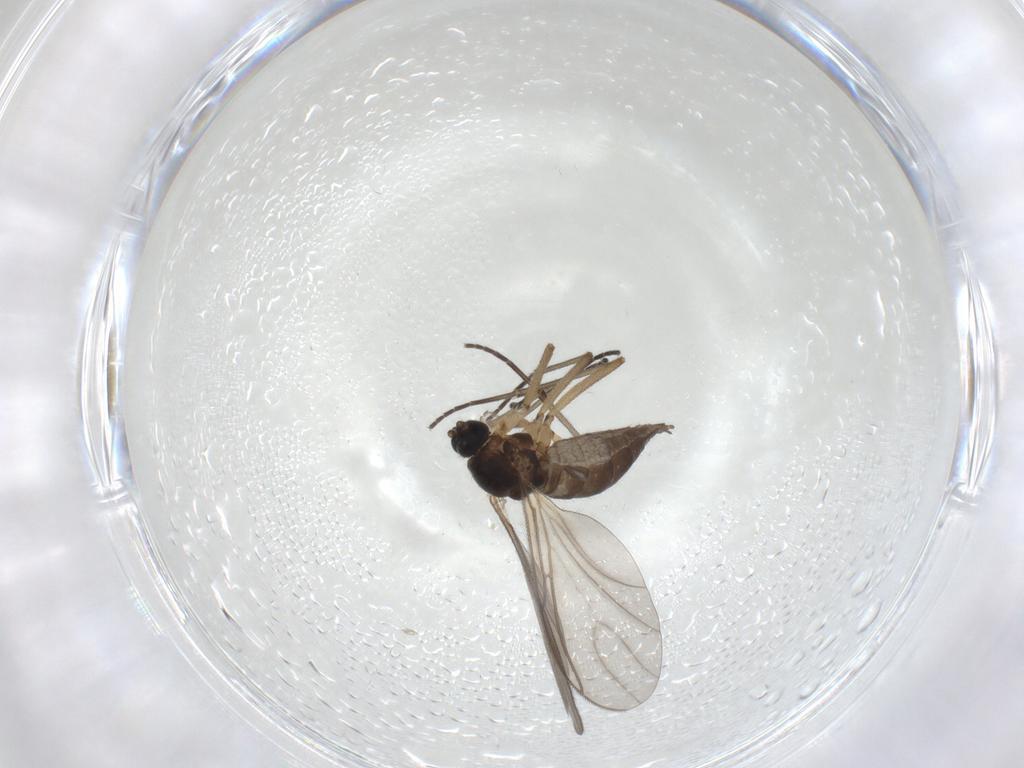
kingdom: Animalia
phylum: Arthropoda
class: Insecta
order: Diptera
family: Sciaridae
